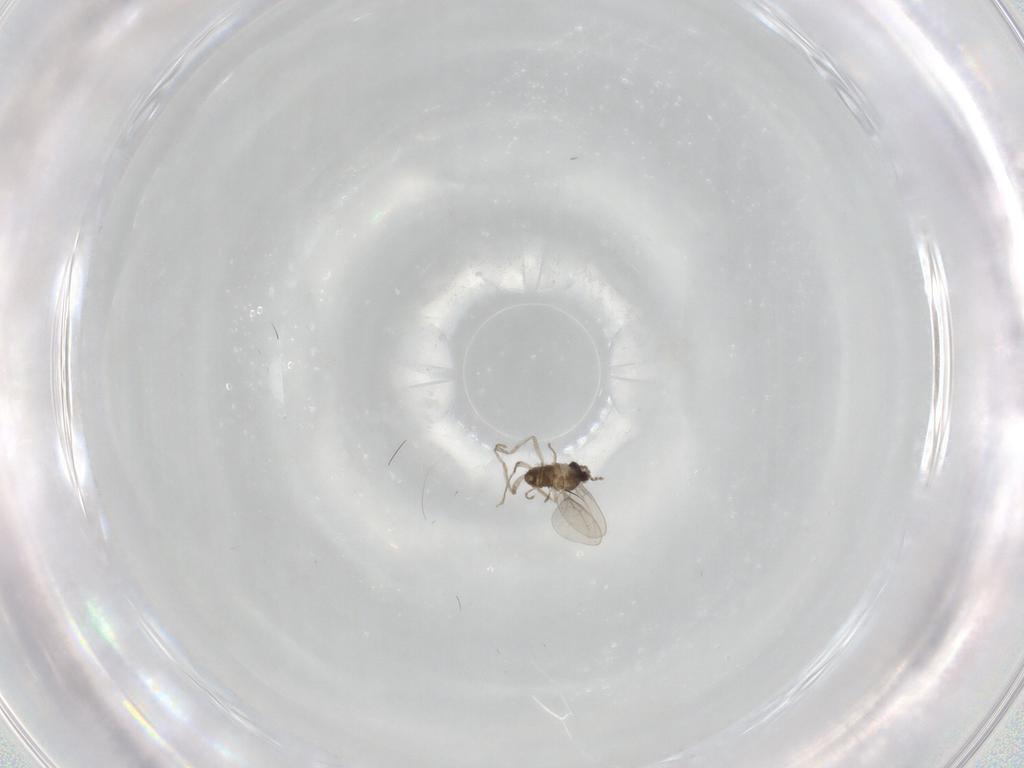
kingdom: Animalia
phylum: Arthropoda
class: Insecta
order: Diptera
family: Cecidomyiidae
